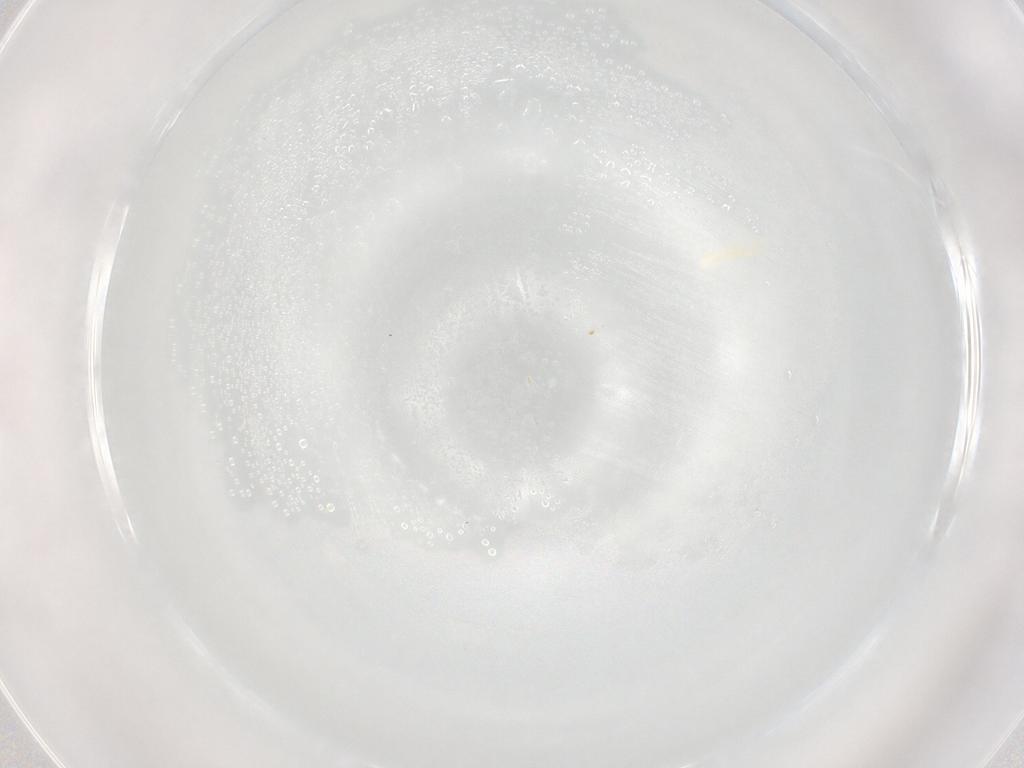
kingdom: Animalia
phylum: Arthropoda
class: Collembola
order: Poduromorpha
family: Onychiuridae
